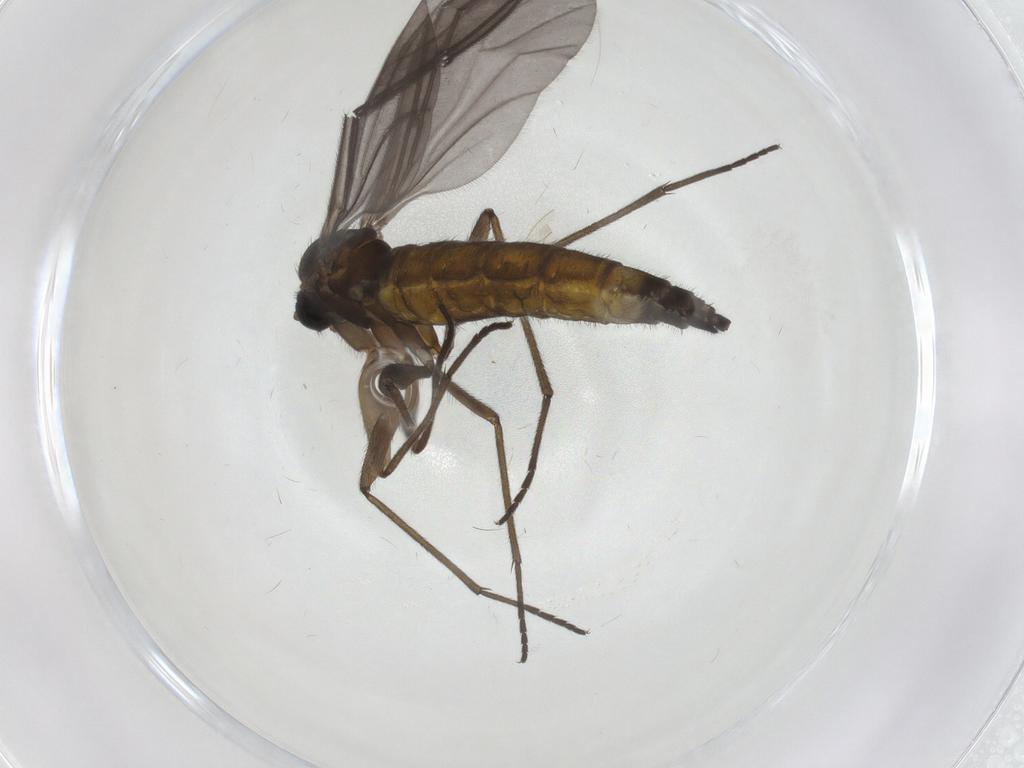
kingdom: Animalia
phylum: Arthropoda
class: Insecta
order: Diptera
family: Sciaridae
